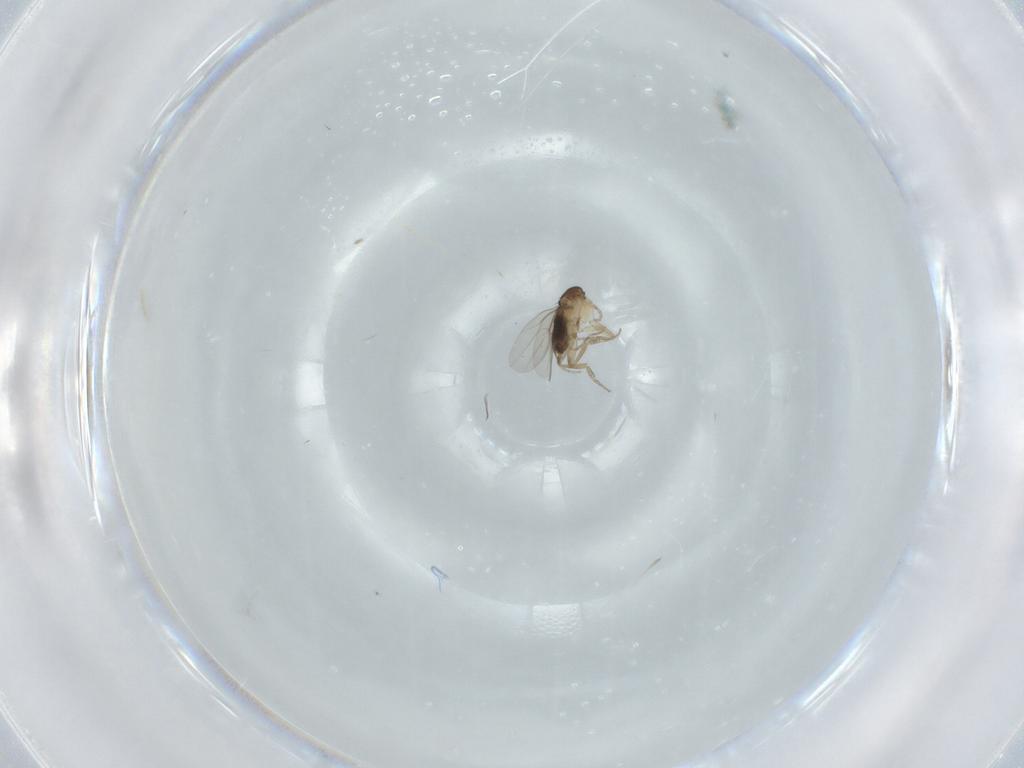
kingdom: Animalia
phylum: Arthropoda
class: Insecta
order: Diptera
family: Phoridae
